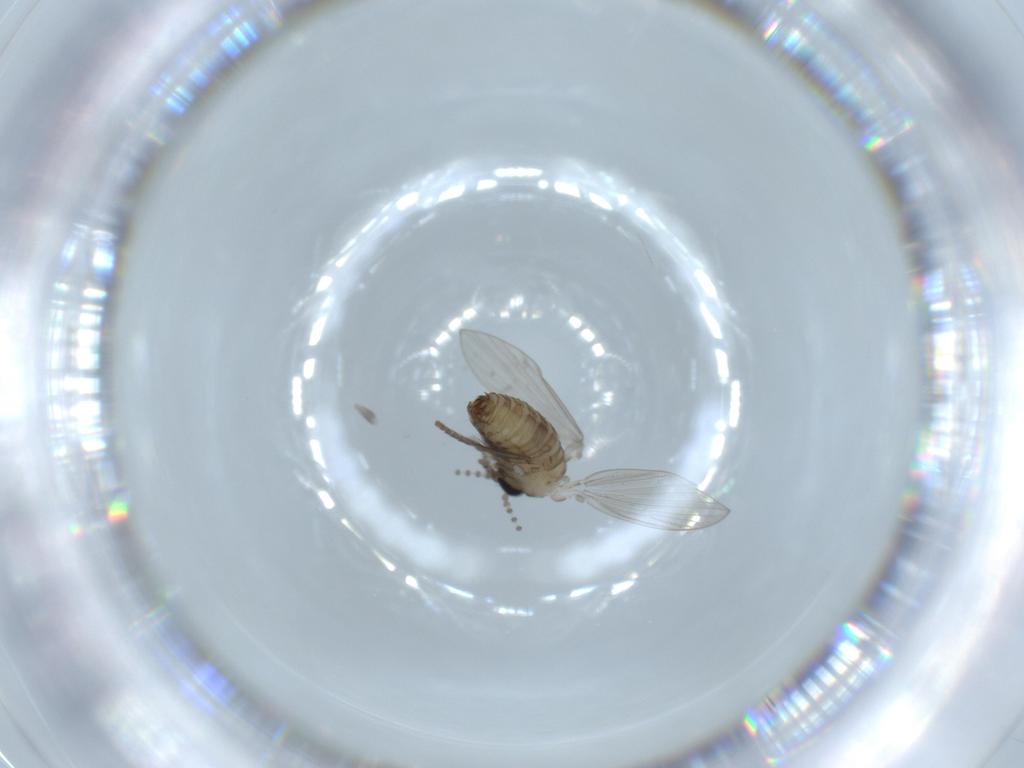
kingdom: Animalia
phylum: Arthropoda
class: Insecta
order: Diptera
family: Psychodidae
